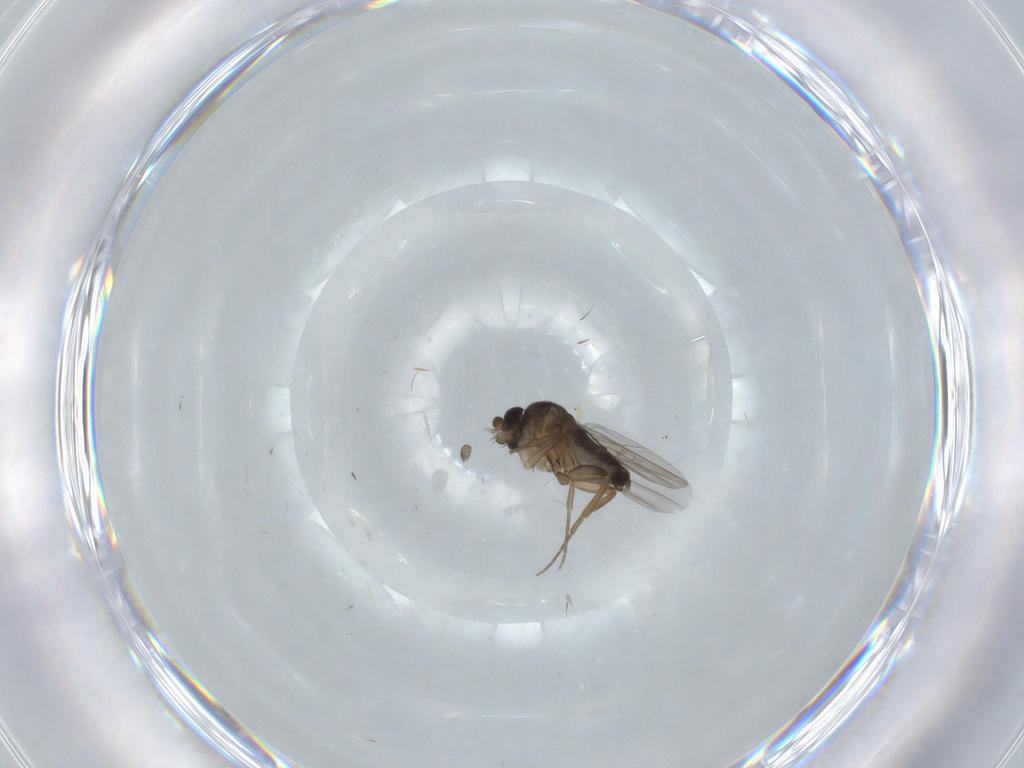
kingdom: Animalia
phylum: Arthropoda
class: Insecta
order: Diptera
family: Phoridae
